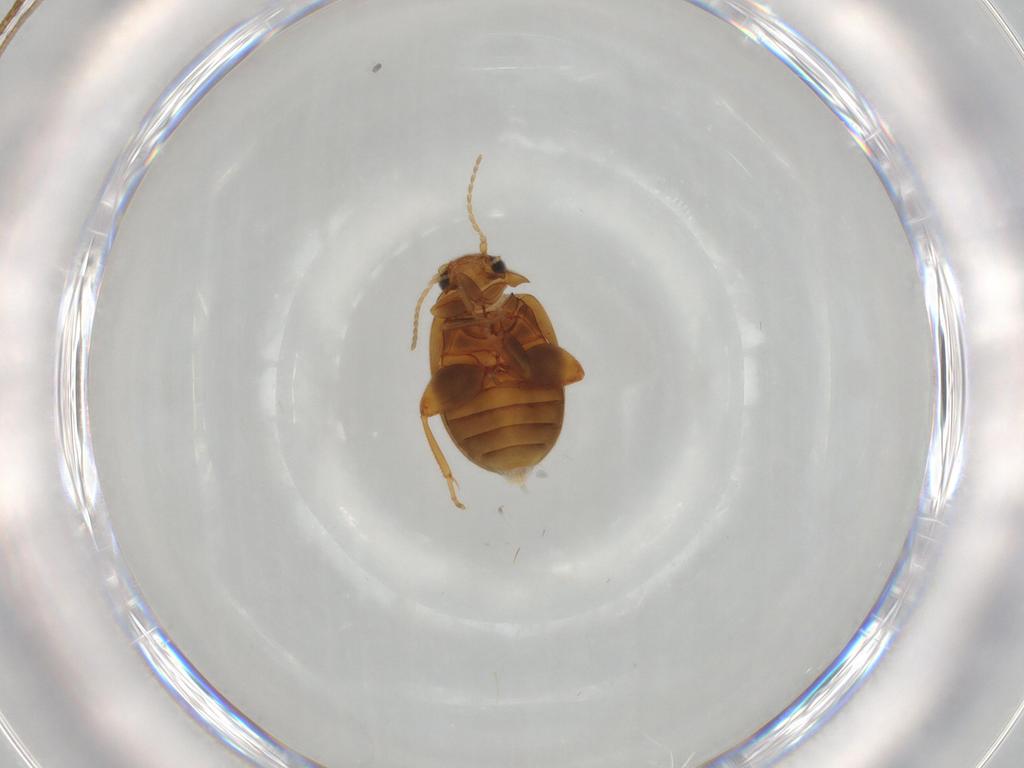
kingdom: Animalia
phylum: Arthropoda
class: Insecta
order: Coleoptera
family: Scirtidae
